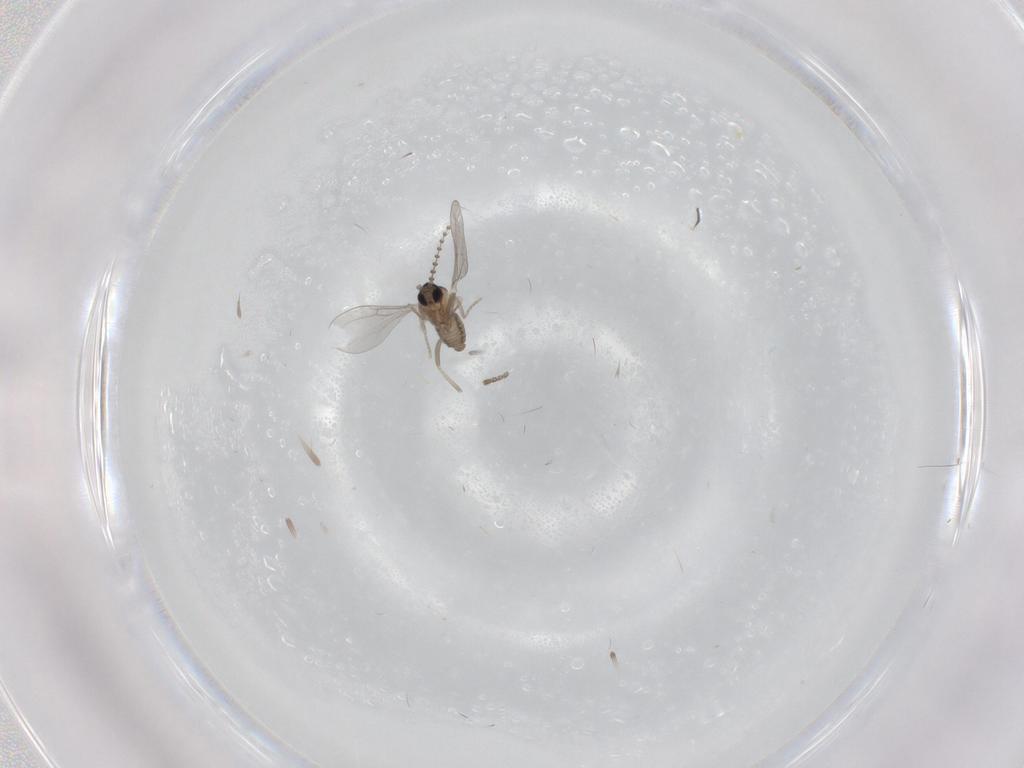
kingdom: Animalia
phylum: Arthropoda
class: Insecta
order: Diptera
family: Cecidomyiidae
